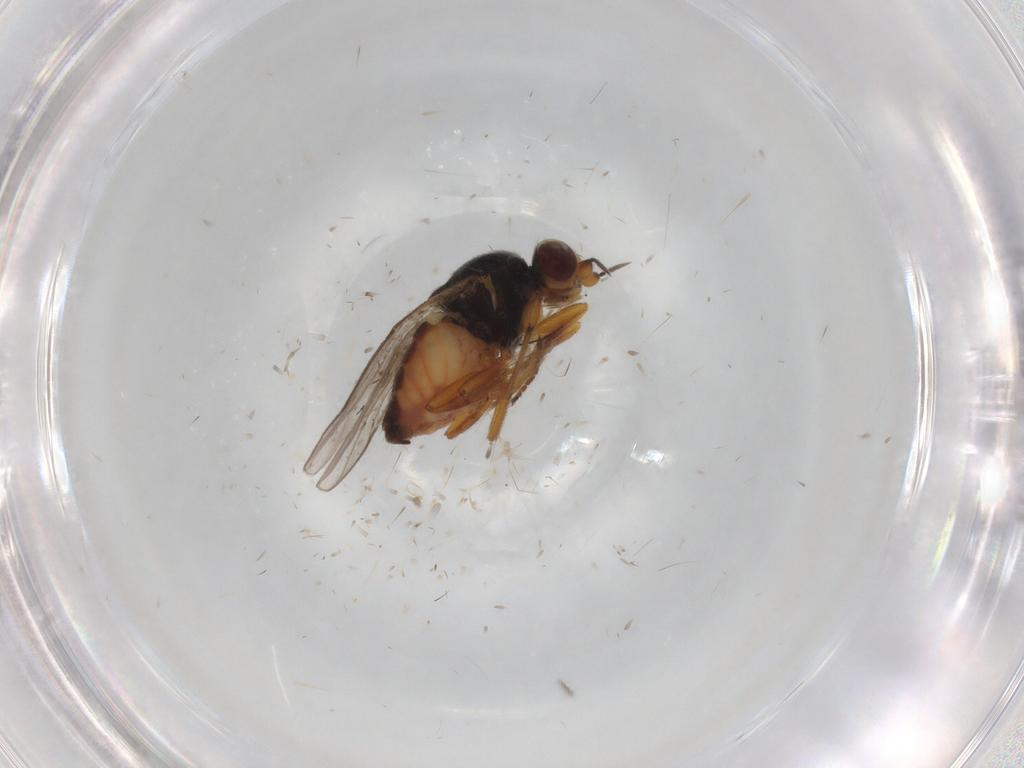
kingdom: Animalia
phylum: Arthropoda
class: Insecta
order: Diptera
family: Chloropidae
